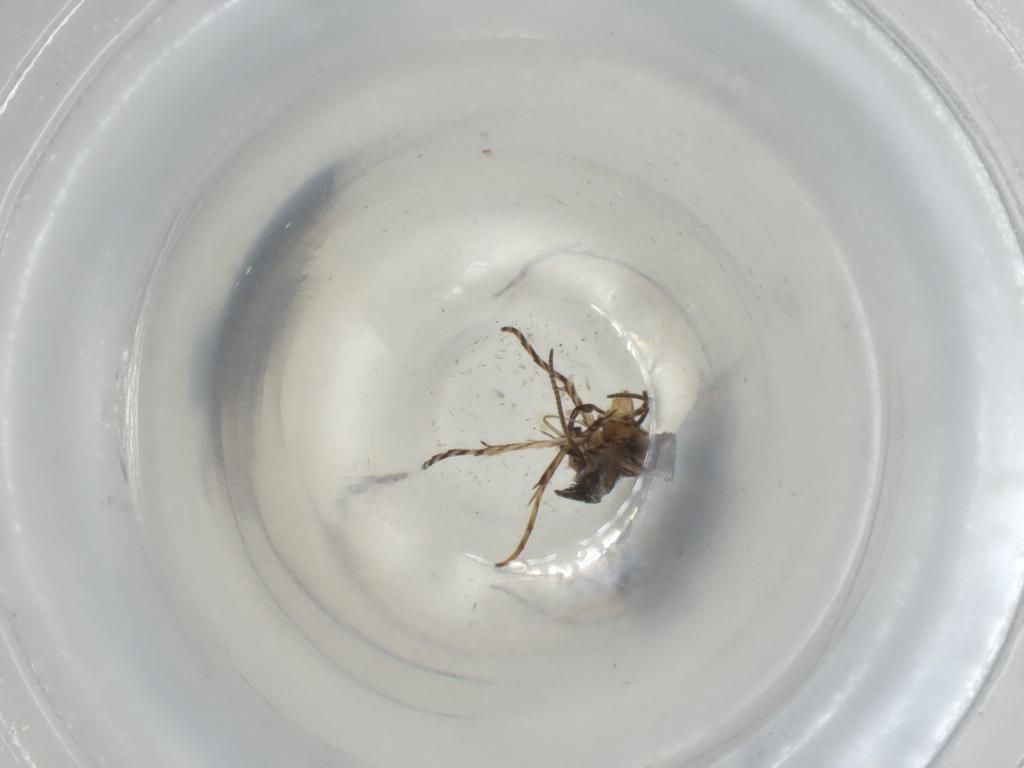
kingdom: Animalia
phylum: Arthropoda
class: Insecta
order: Lepidoptera
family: Gracillariidae
